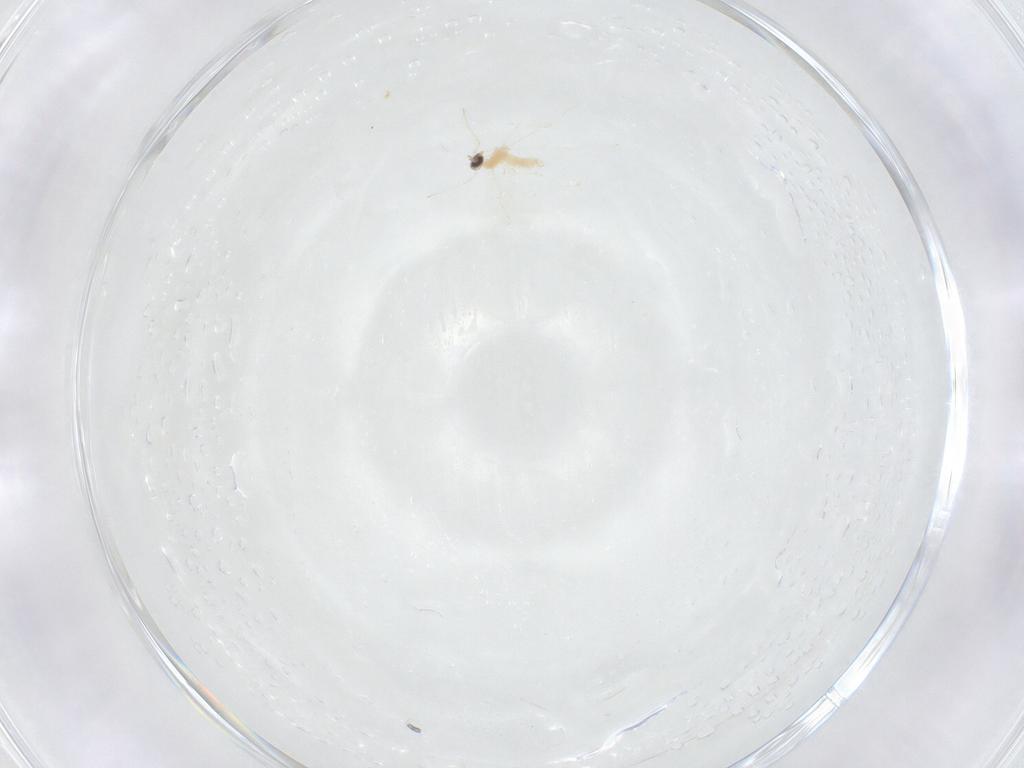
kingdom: Animalia
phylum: Arthropoda
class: Insecta
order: Diptera
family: Cecidomyiidae
